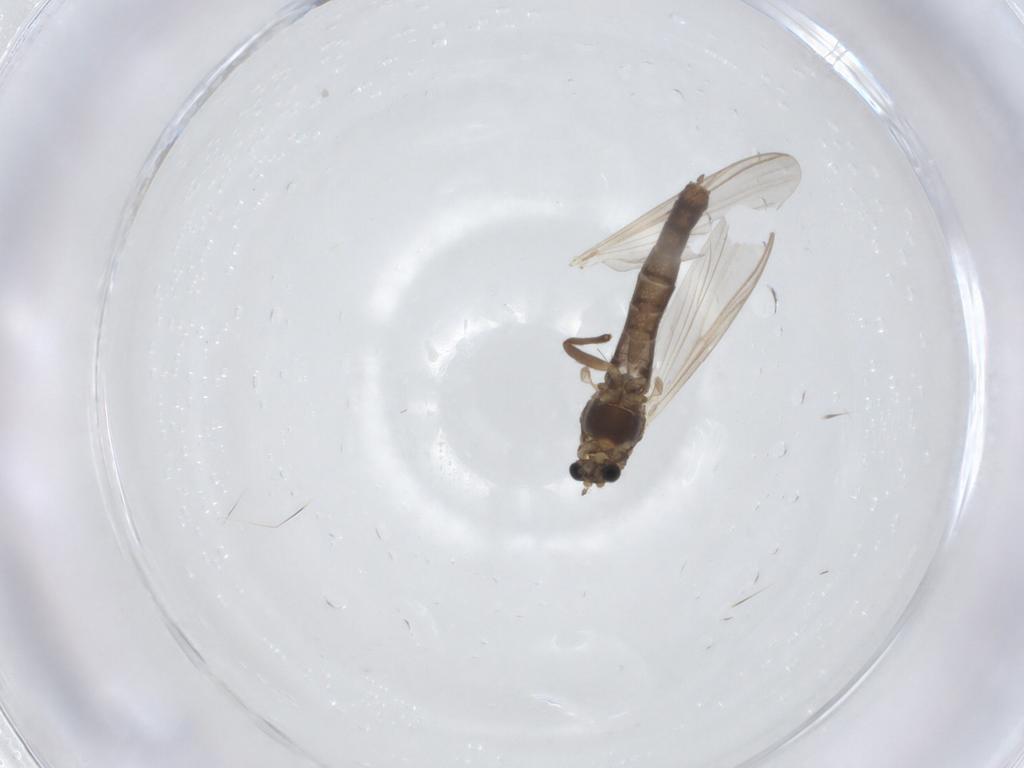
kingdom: Animalia
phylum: Arthropoda
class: Insecta
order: Diptera
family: Chironomidae
